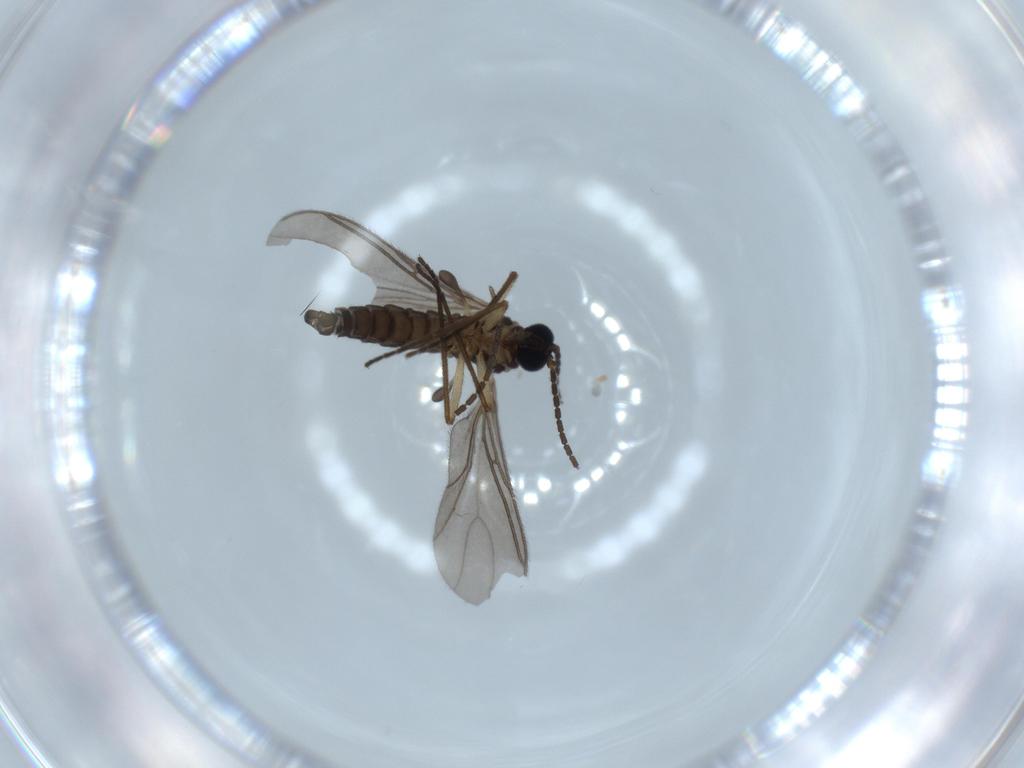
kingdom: Animalia
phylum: Arthropoda
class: Insecta
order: Diptera
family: Sciaridae
